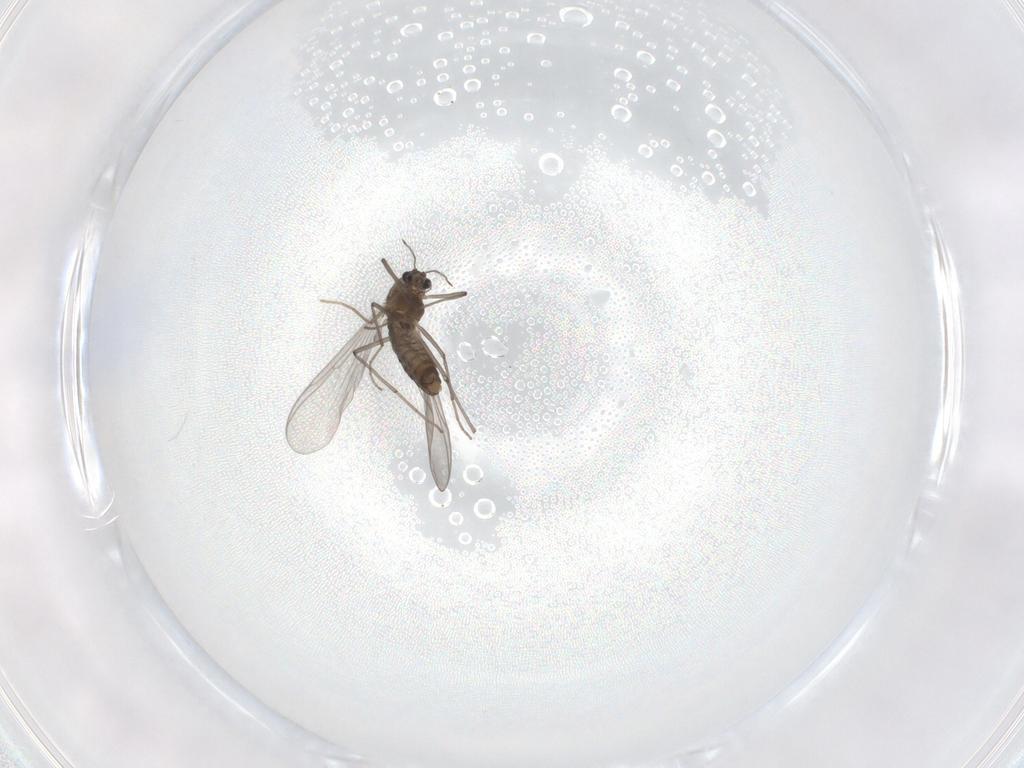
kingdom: Animalia
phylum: Arthropoda
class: Insecta
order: Diptera
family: Chironomidae
